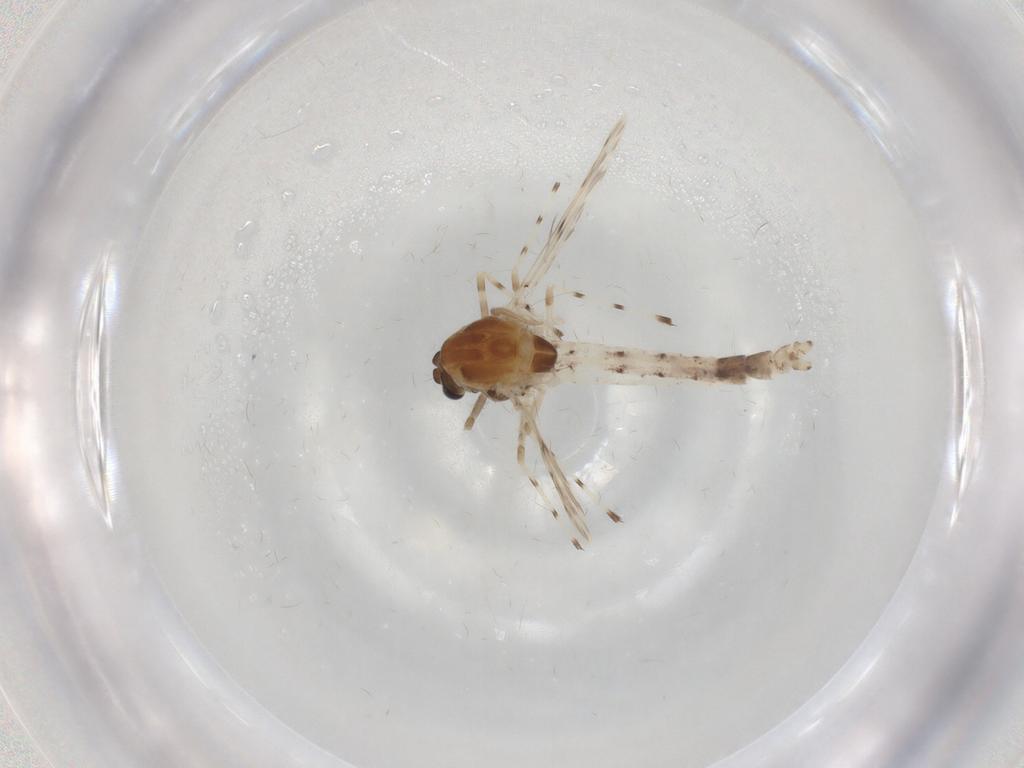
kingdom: Animalia
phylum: Arthropoda
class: Insecta
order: Diptera
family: Chironomidae
